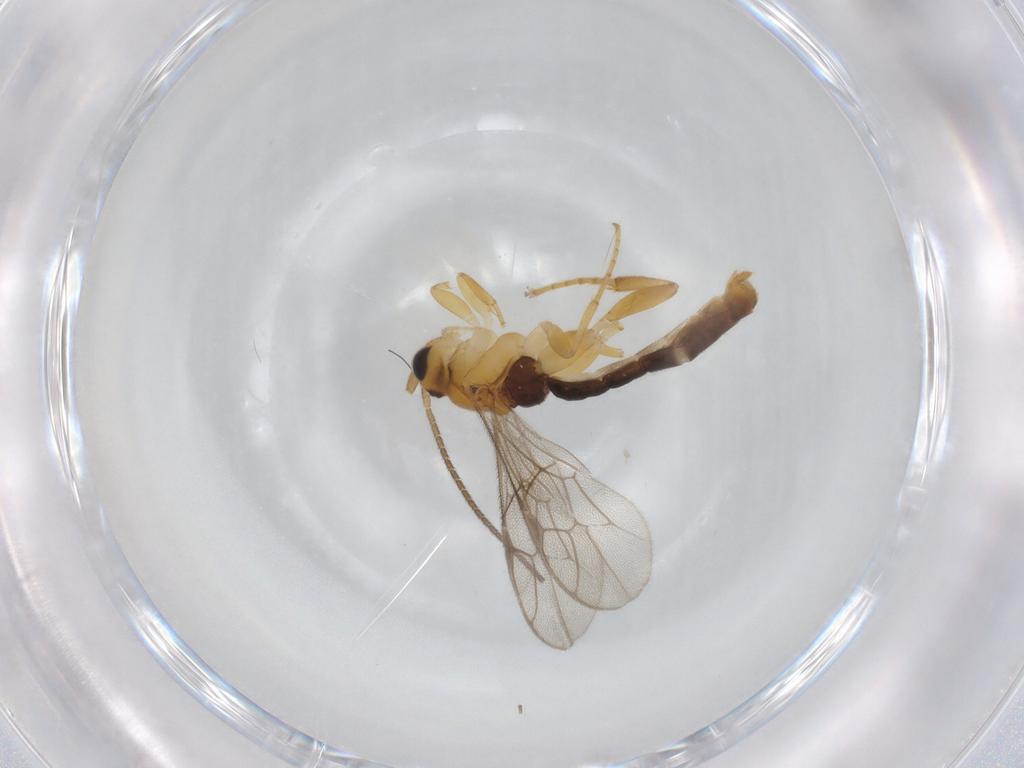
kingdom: Animalia
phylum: Arthropoda
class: Insecta
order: Hymenoptera
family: Ichneumonidae
